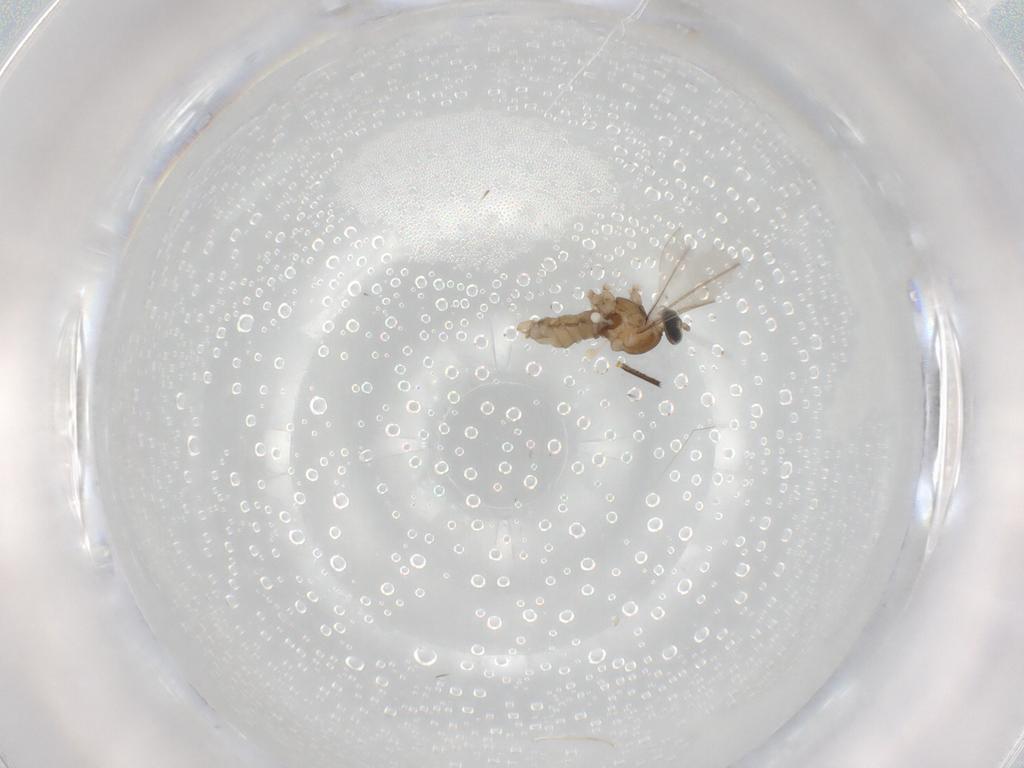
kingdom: Animalia
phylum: Arthropoda
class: Insecta
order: Diptera
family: Cecidomyiidae
